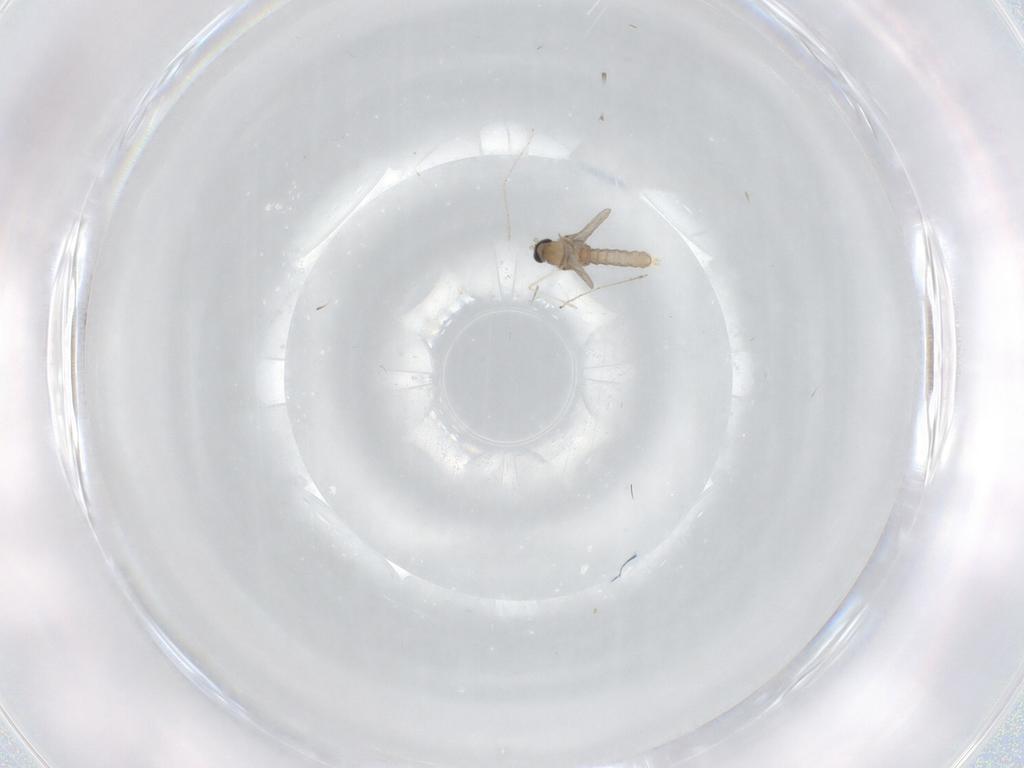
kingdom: Animalia
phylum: Arthropoda
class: Insecta
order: Diptera
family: Cecidomyiidae
